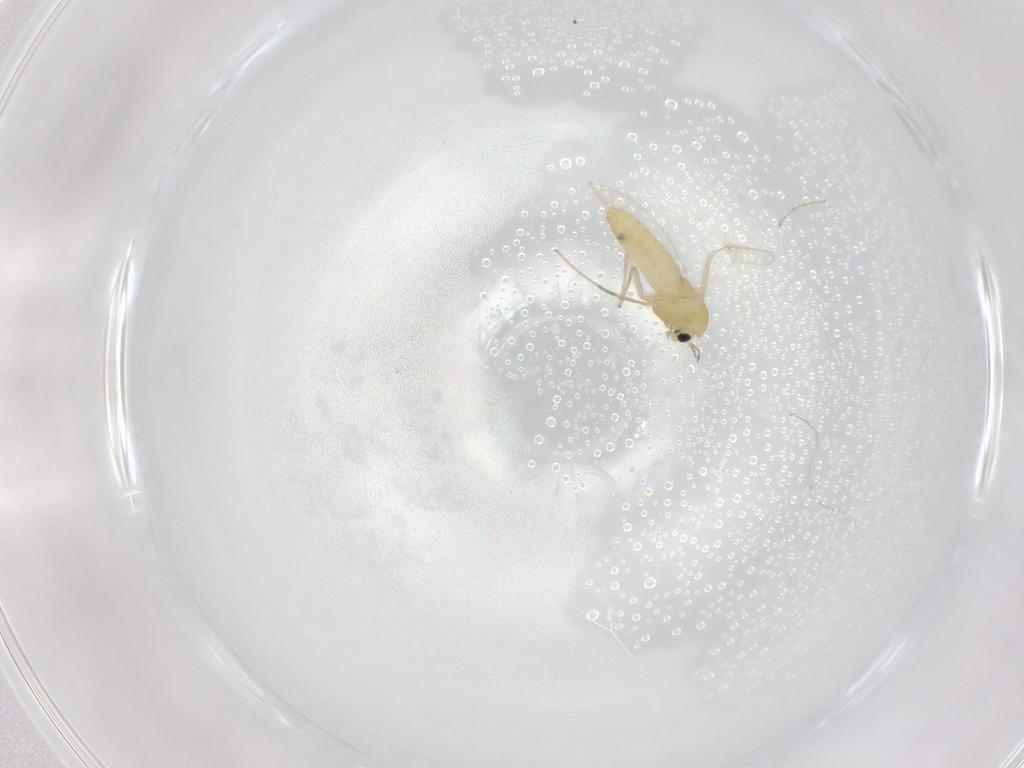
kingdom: Animalia
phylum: Arthropoda
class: Insecta
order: Diptera
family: Chironomidae
